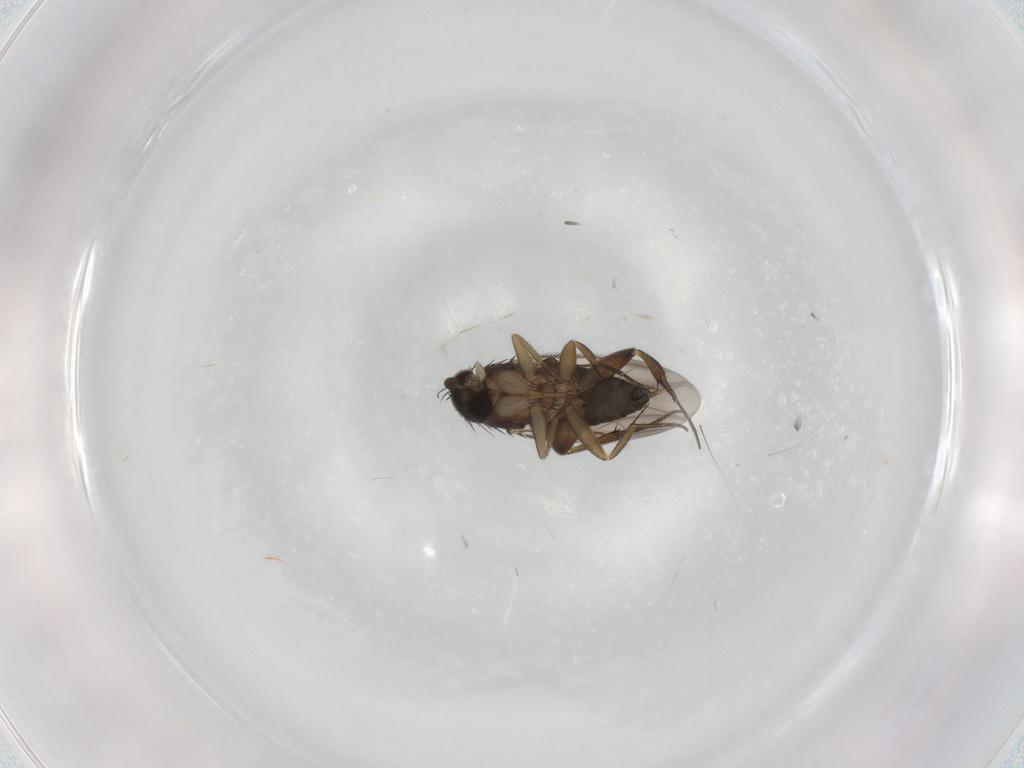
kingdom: Animalia
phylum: Arthropoda
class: Insecta
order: Diptera
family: Phoridae
